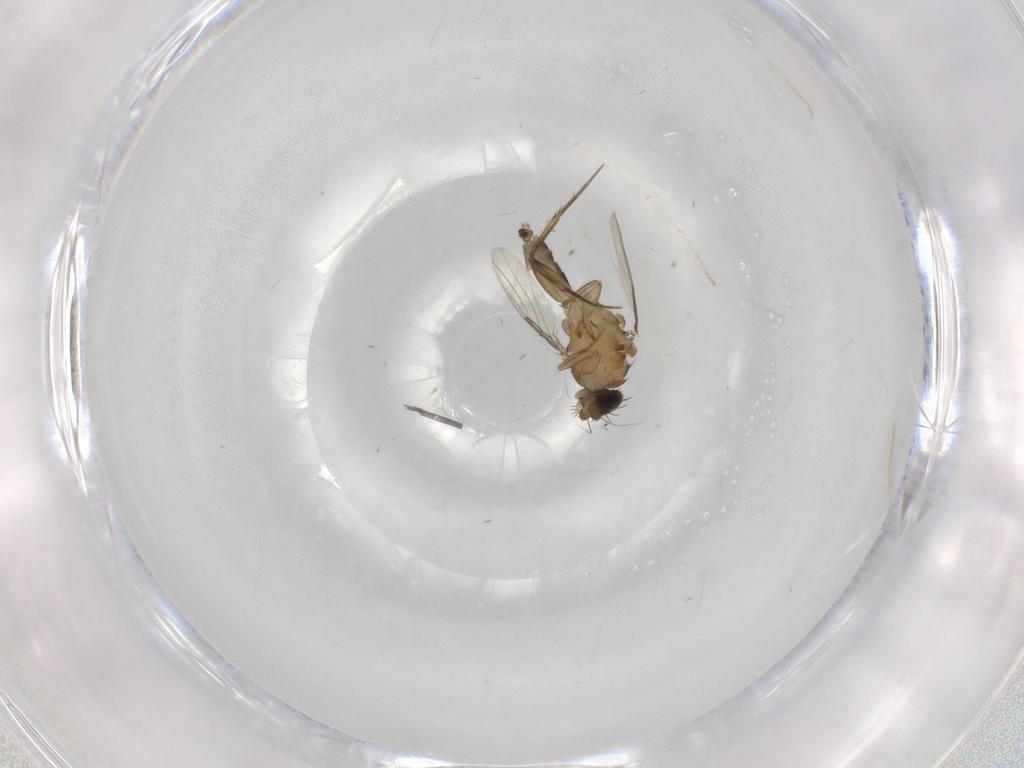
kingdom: Animalia
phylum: Arthropoda
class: Insecta
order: Diptera
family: Phoridae
